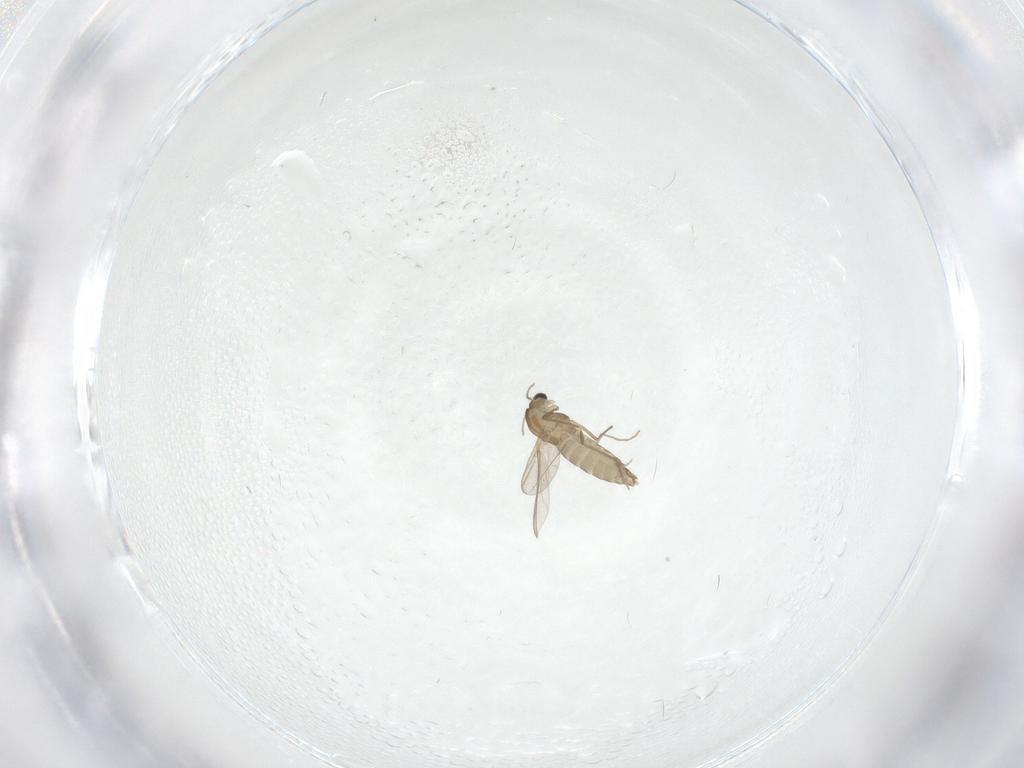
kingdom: Animalia
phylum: Arthropoda
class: Insecta
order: Diptera
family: Cecidomyiidae
